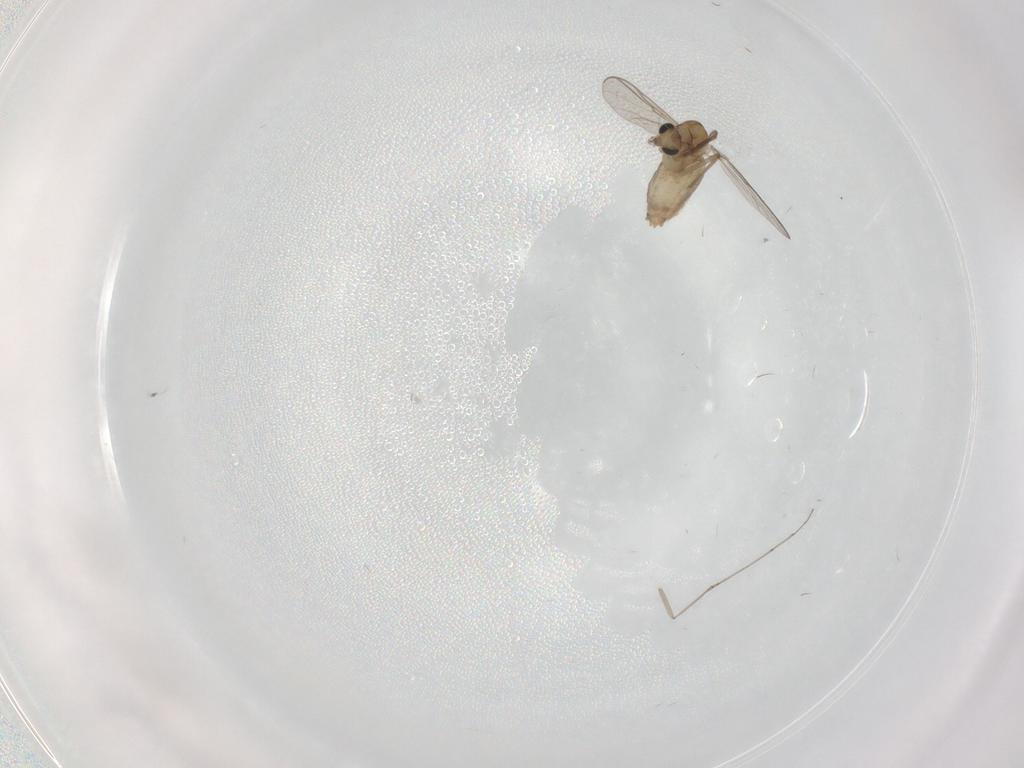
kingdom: Animalia
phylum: Arthropoda
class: Insecta
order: Diptera
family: Chironomidae
